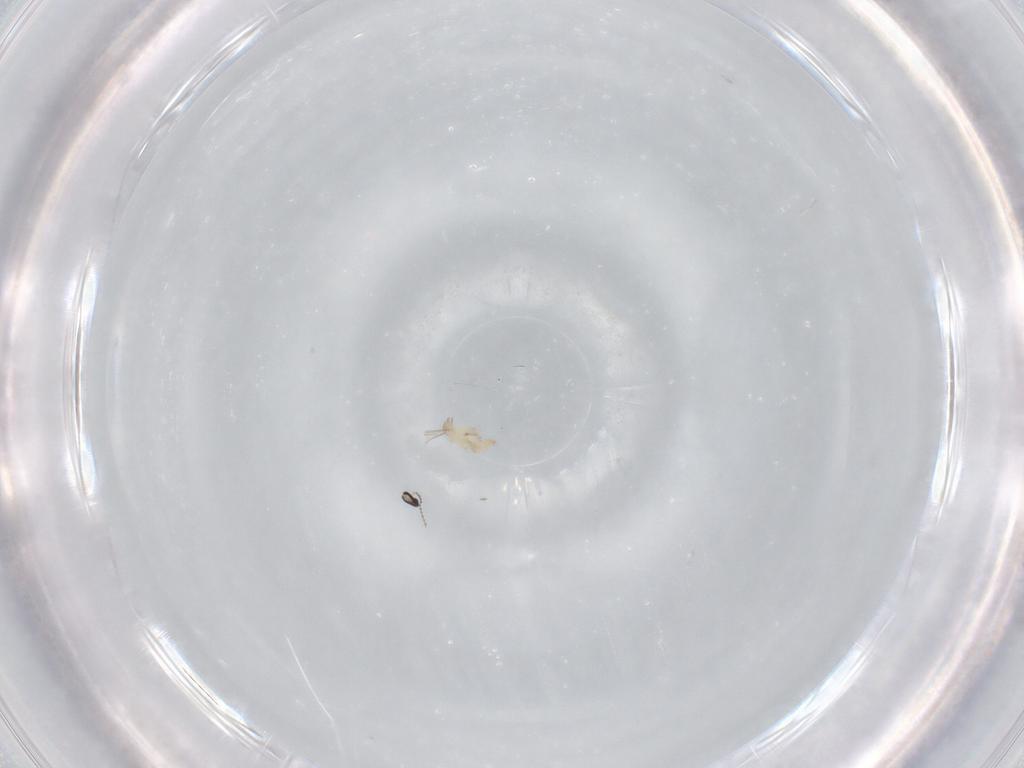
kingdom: Animalia
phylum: Arthropoda
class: Insecta
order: Diptera
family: Cecidomyiidae
